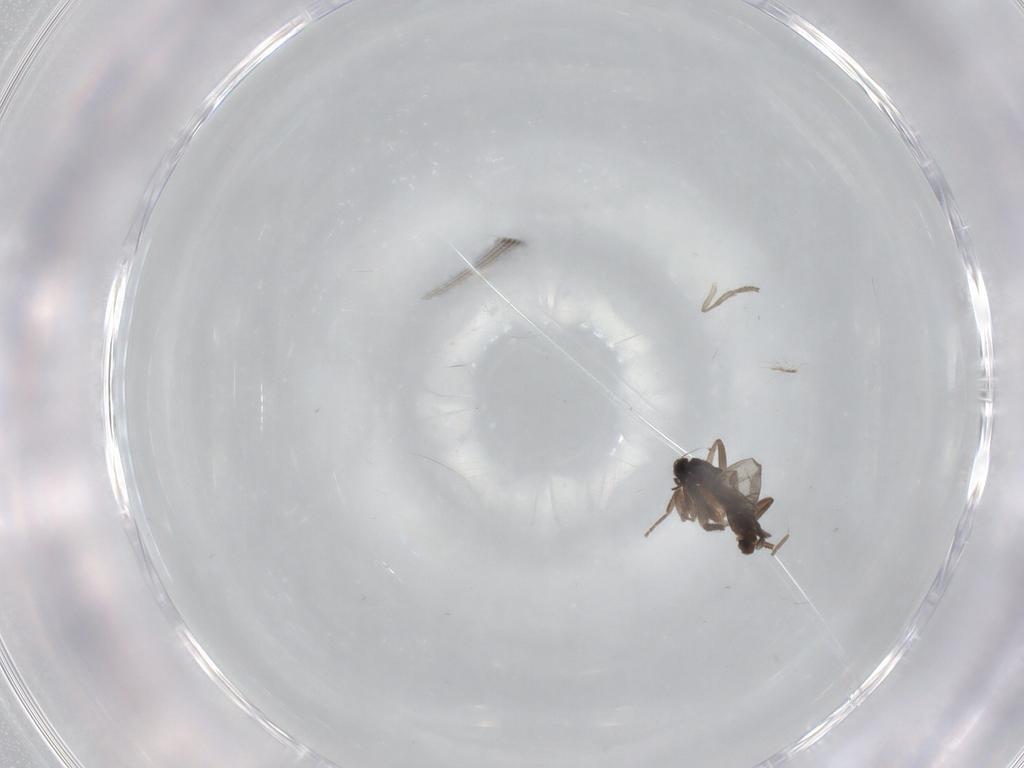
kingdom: Animalia
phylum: Arthropoda
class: Insecta
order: Diptera
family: Psychodidae
